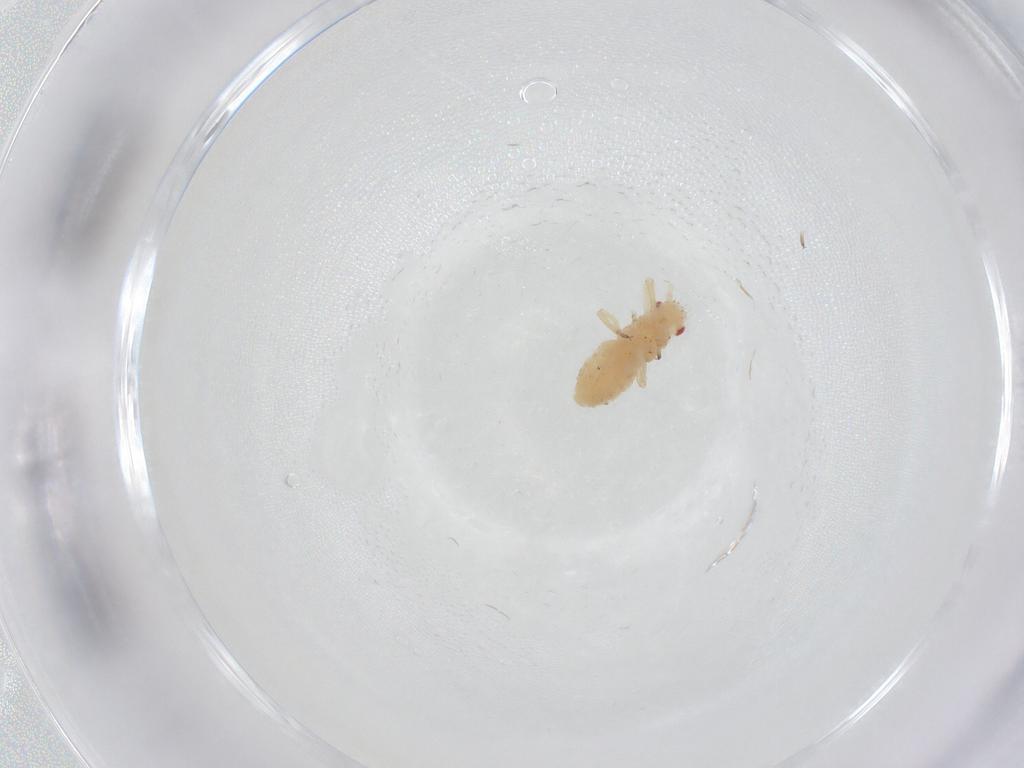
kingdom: Animalia
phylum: Arthropoda
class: Insecta
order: Hemiptera
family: Aphididae
